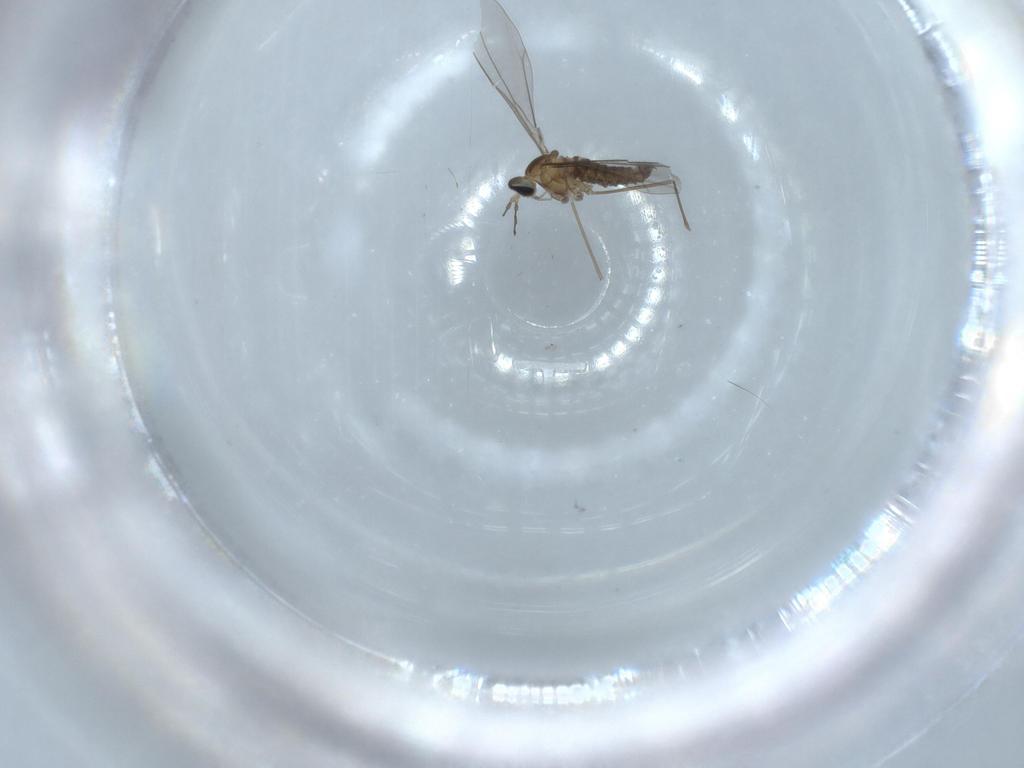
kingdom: Animalia
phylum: Arthropoda
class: Insecta
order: Diptera
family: Cecidomyiidae
